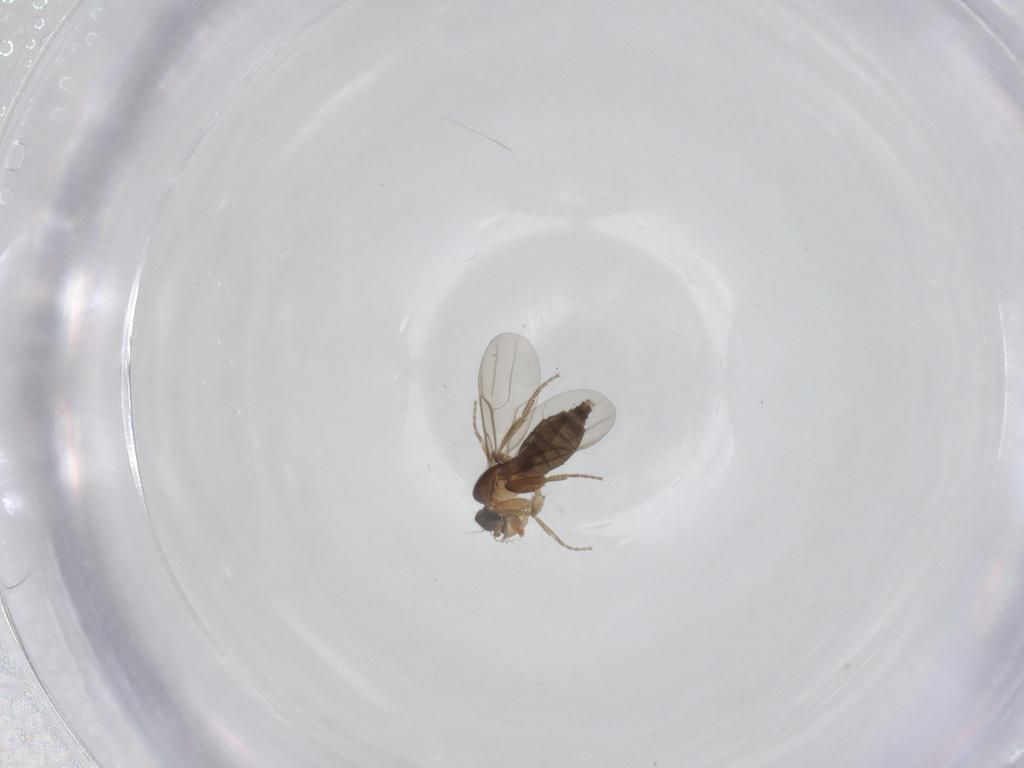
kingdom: Animalia
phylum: Arthropoda
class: Insecta
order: Diptera
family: Phoridae
